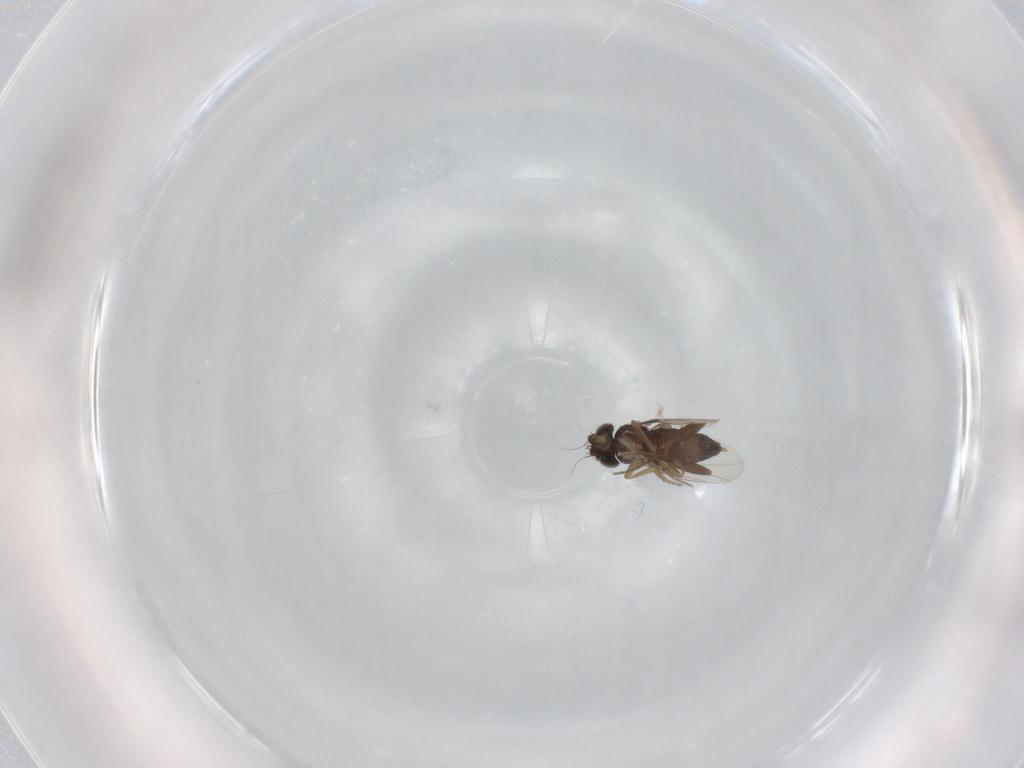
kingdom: Animalia
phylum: Arthropoda
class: Insecta
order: Diptera
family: Phoridae
